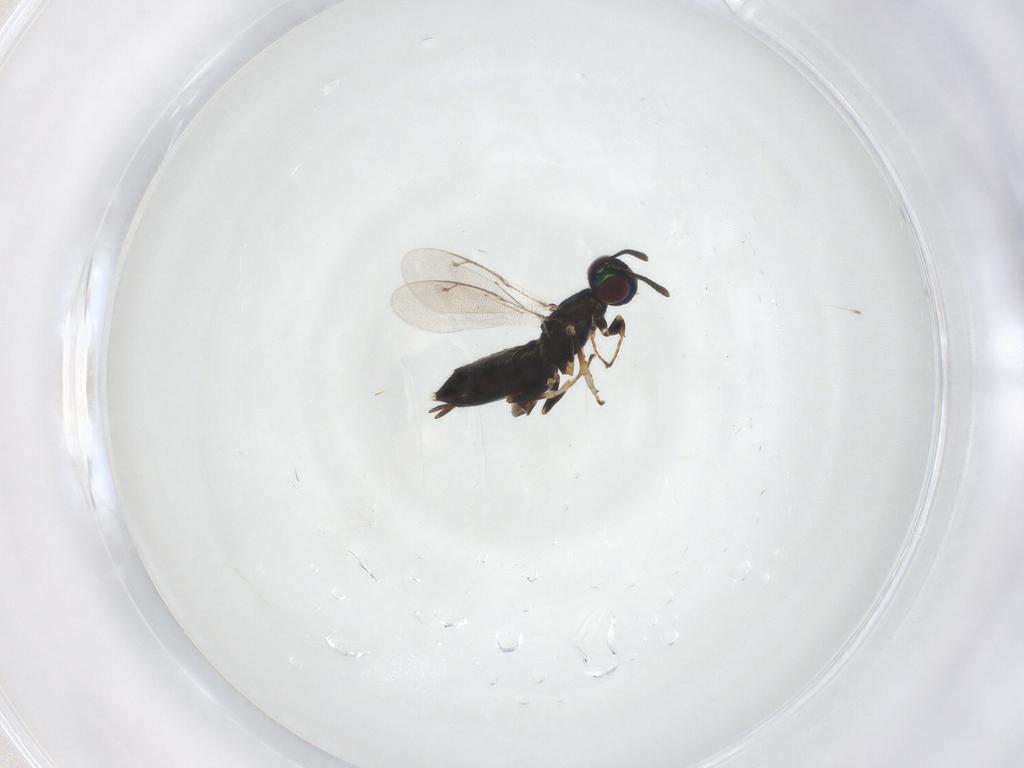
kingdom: Animalia
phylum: Arthropoda
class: Insecta
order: Hymenoptera
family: Eupelmidae
